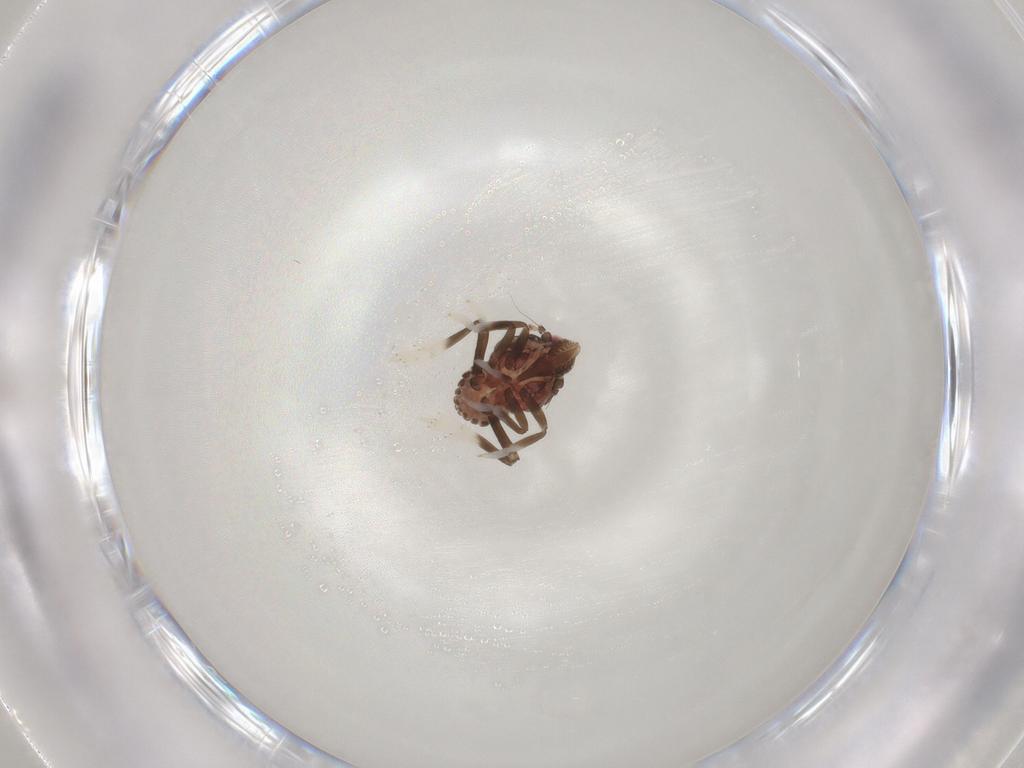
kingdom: Animalia
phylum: Arthropoda
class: Insecta
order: Hemiptera
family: Fulgoroidea_incertae_sedis
